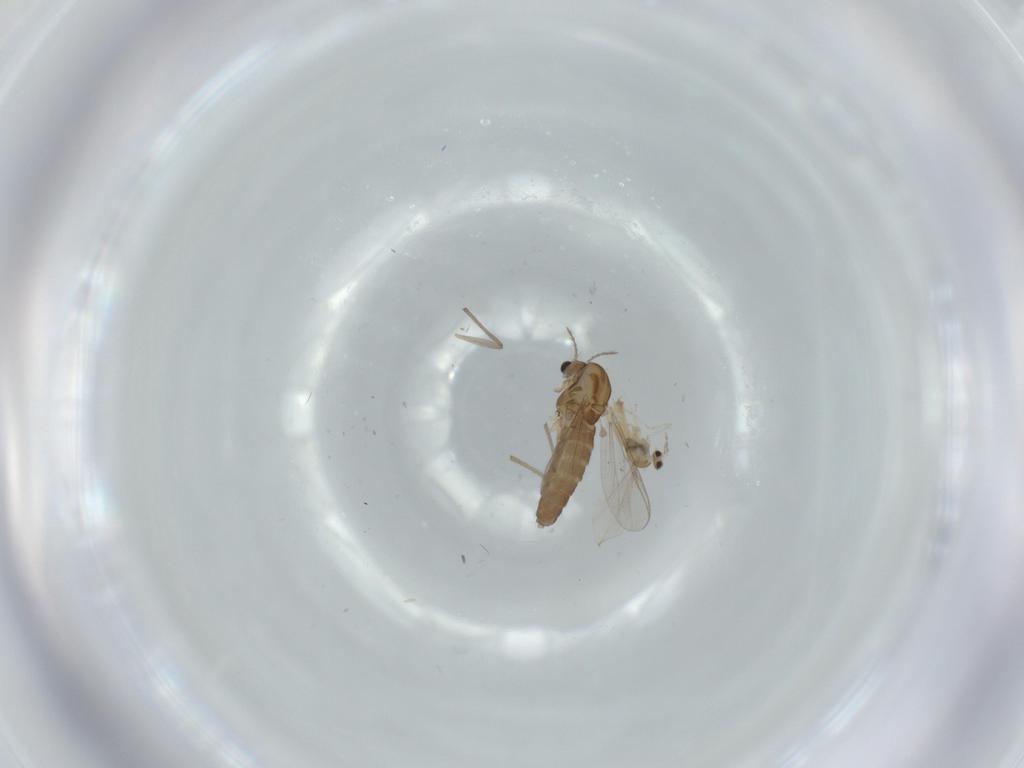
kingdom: Animalia
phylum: Arthropoda
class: Insecta
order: Diptera
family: Chironomidae
